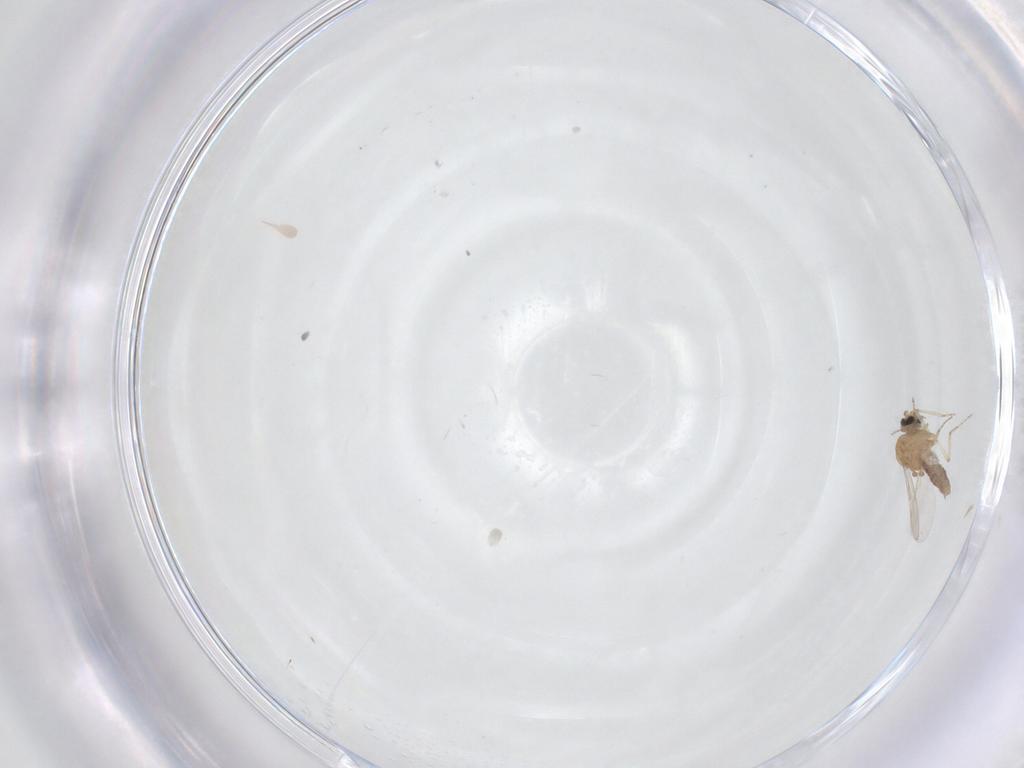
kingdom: Animalia
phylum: Arthropoda
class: Insecta
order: Diptera
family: Ceratopogonidae
